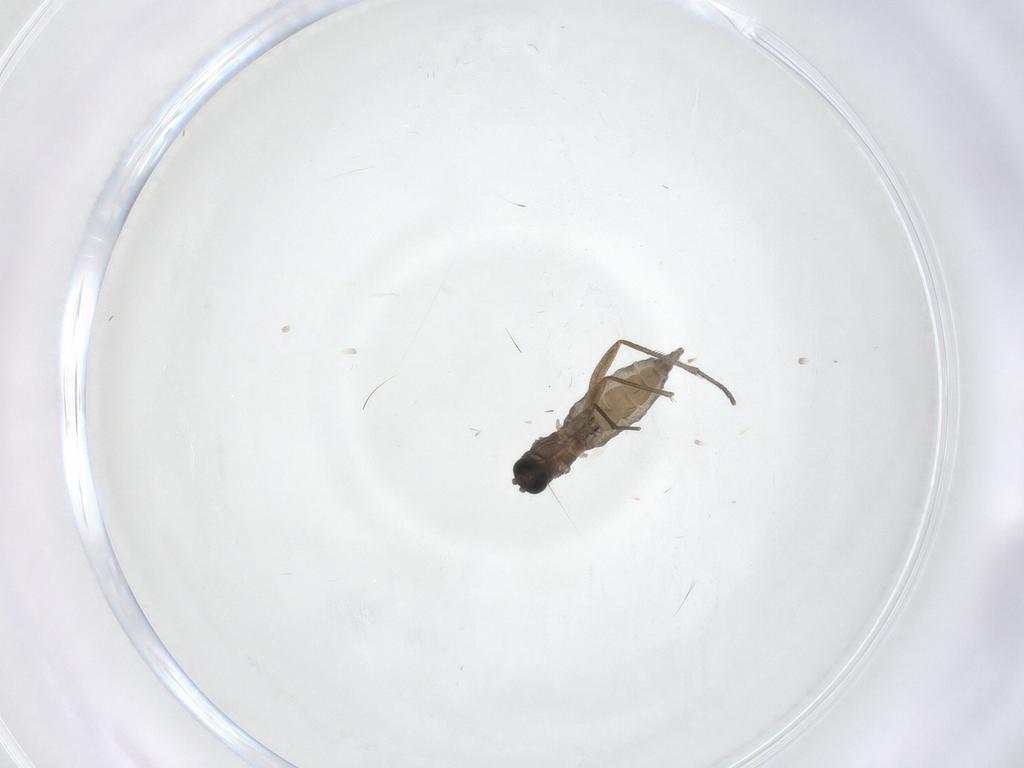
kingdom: Animalia
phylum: Arthropoda
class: Insecta
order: Diptera
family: Sciaridae
